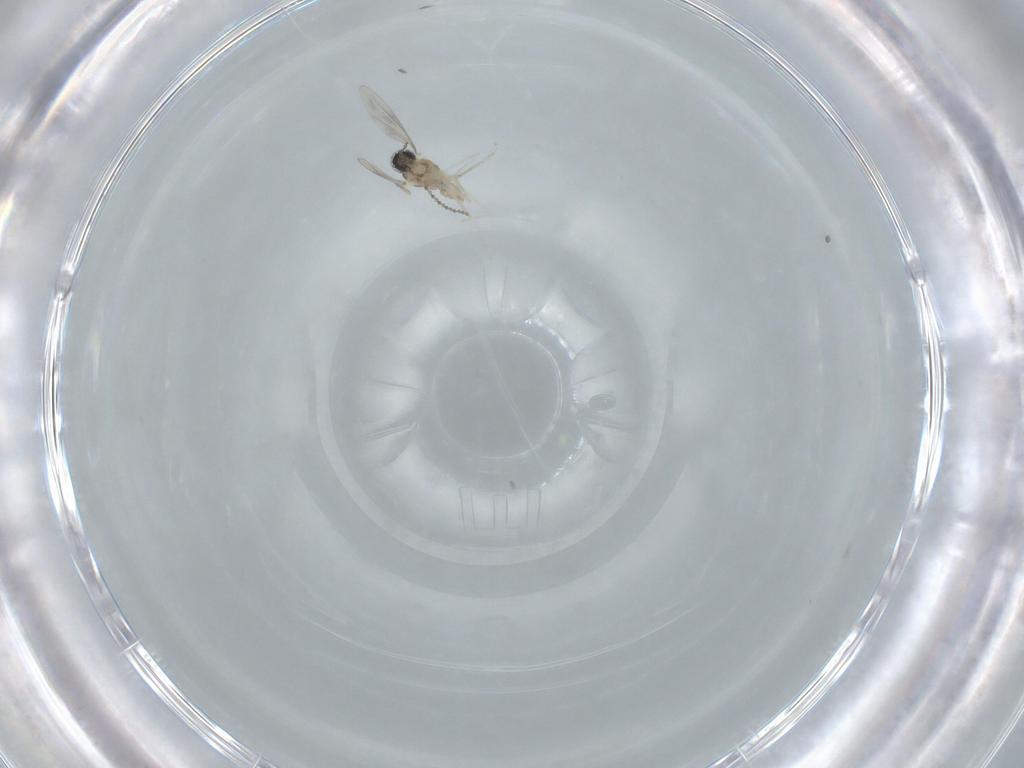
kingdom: Animalia
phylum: Arthropoda
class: Insecta
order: Diptera
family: Cecidomyiidae
